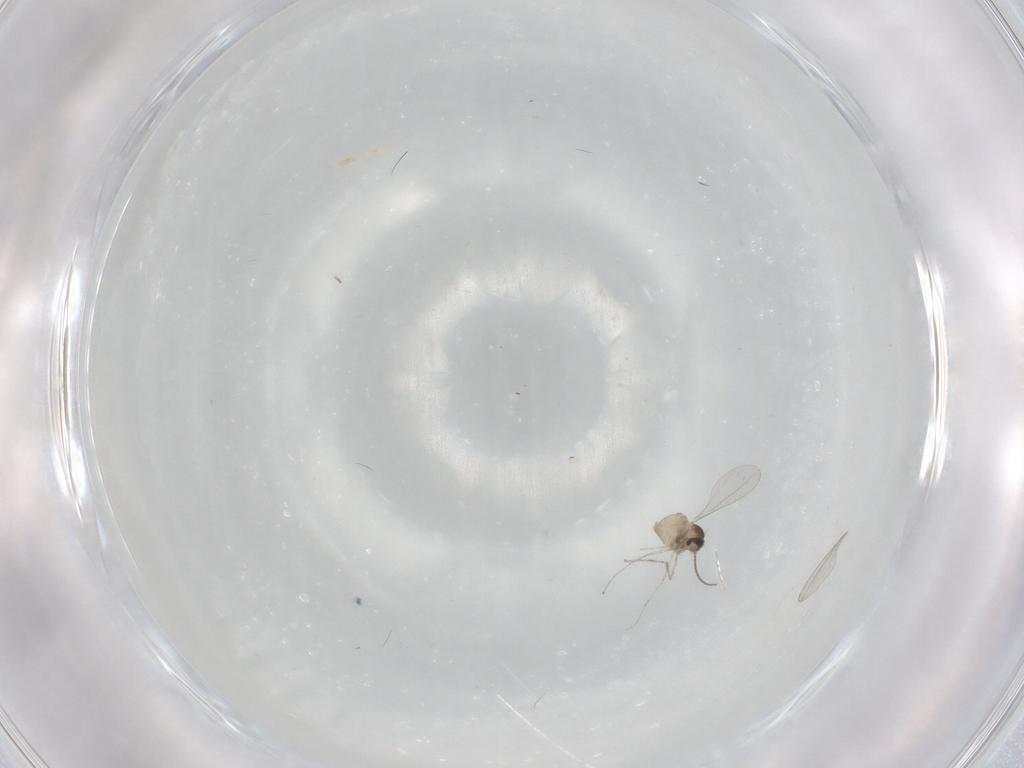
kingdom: Animalia
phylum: Arthropoda
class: Insecta
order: Diptera
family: Cecidomyiidae
